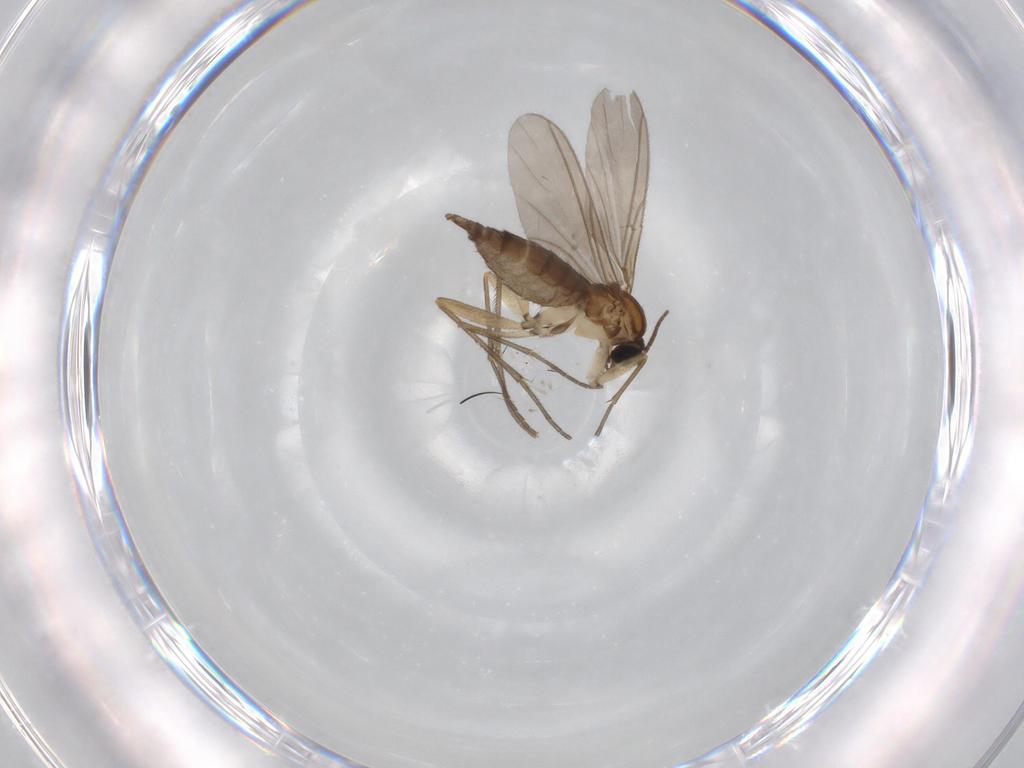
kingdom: Animalia
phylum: Arthropoda
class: Insecta
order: Diptera
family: Sciaridae
